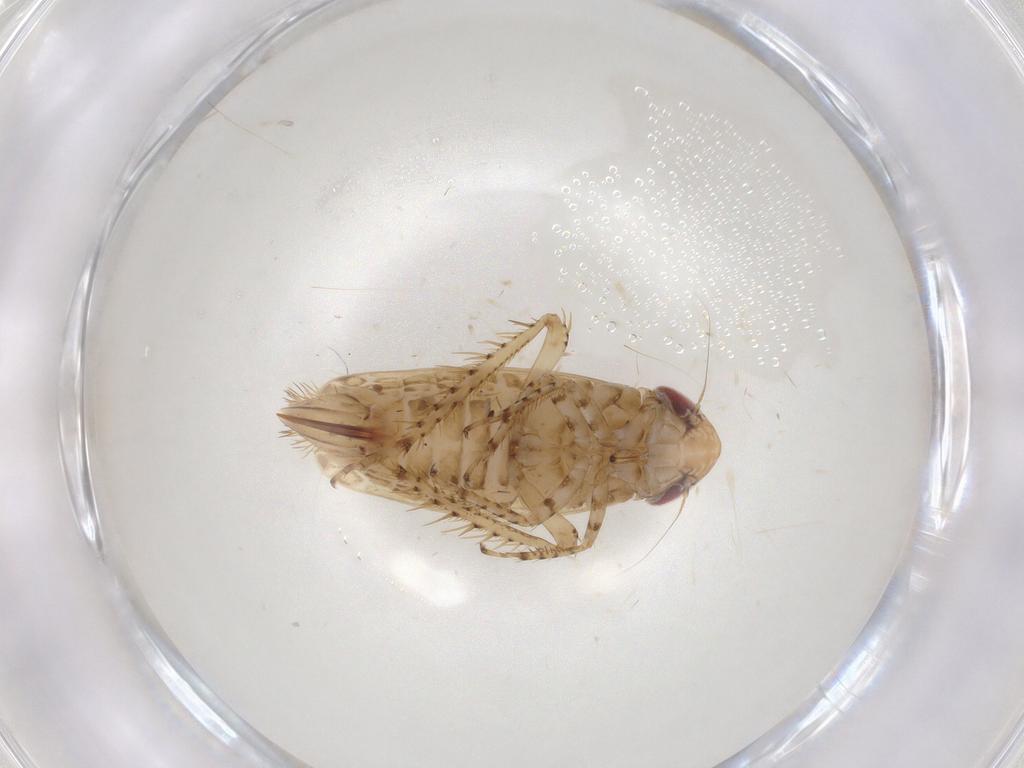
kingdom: Animalia
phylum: Arthropoda
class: Insecta
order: Hemiptera
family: Cicadellidae
